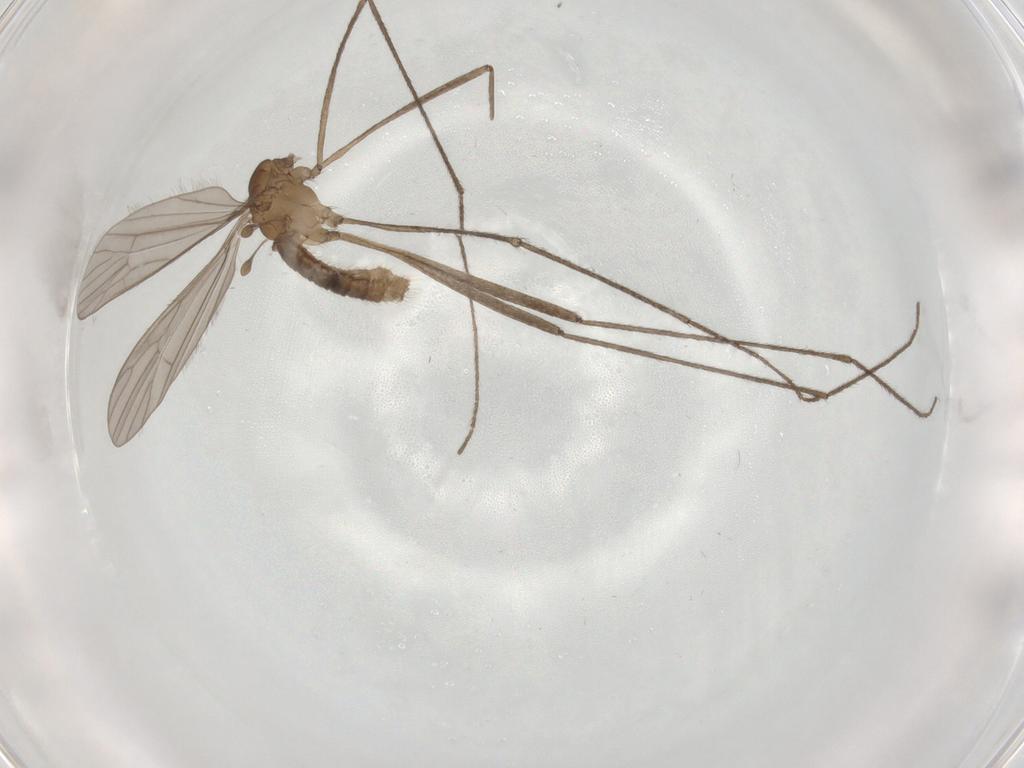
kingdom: Animalia
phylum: Arthropoda
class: Insecta
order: Diptera
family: Limoniidae
